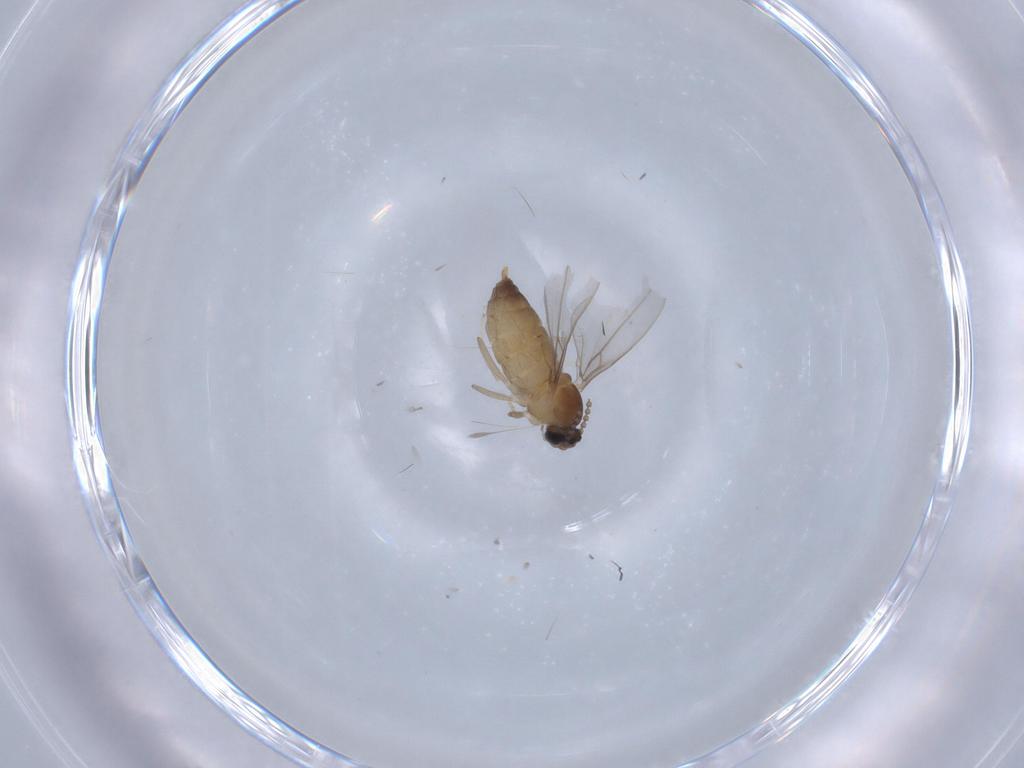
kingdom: Animalia
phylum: Arthropoda
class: Insecta
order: Diptera
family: Cecidomyiidae
